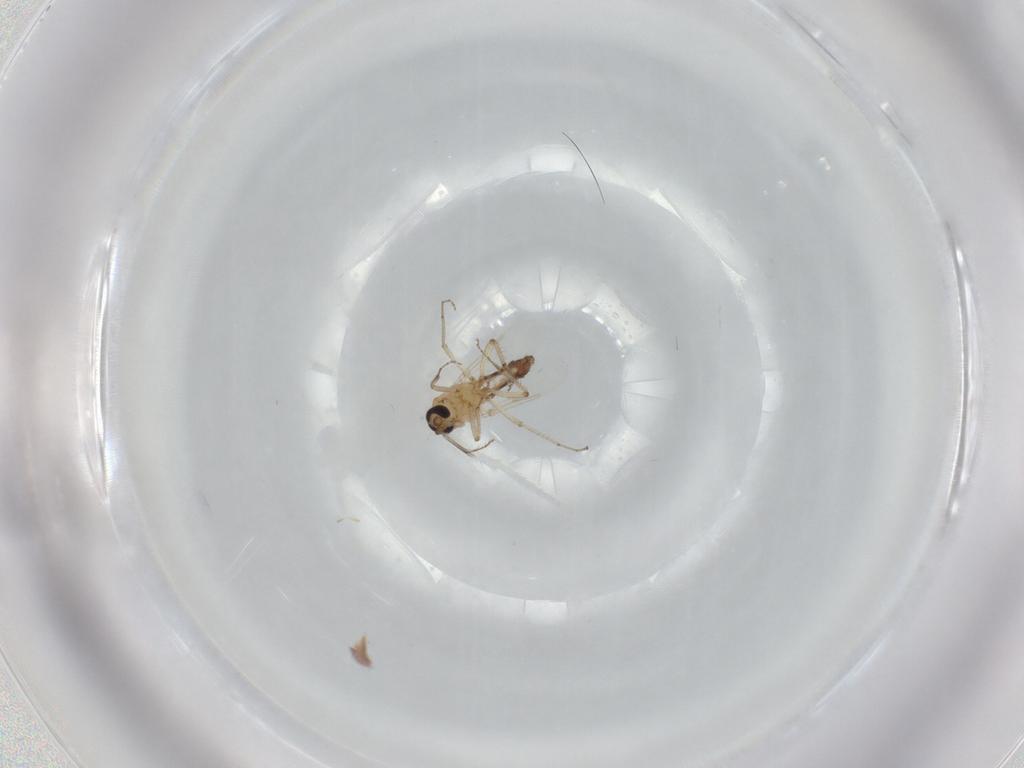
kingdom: Animalia
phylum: Arthropoda
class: Insecta
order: Diptera
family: Ceratopogonidae
